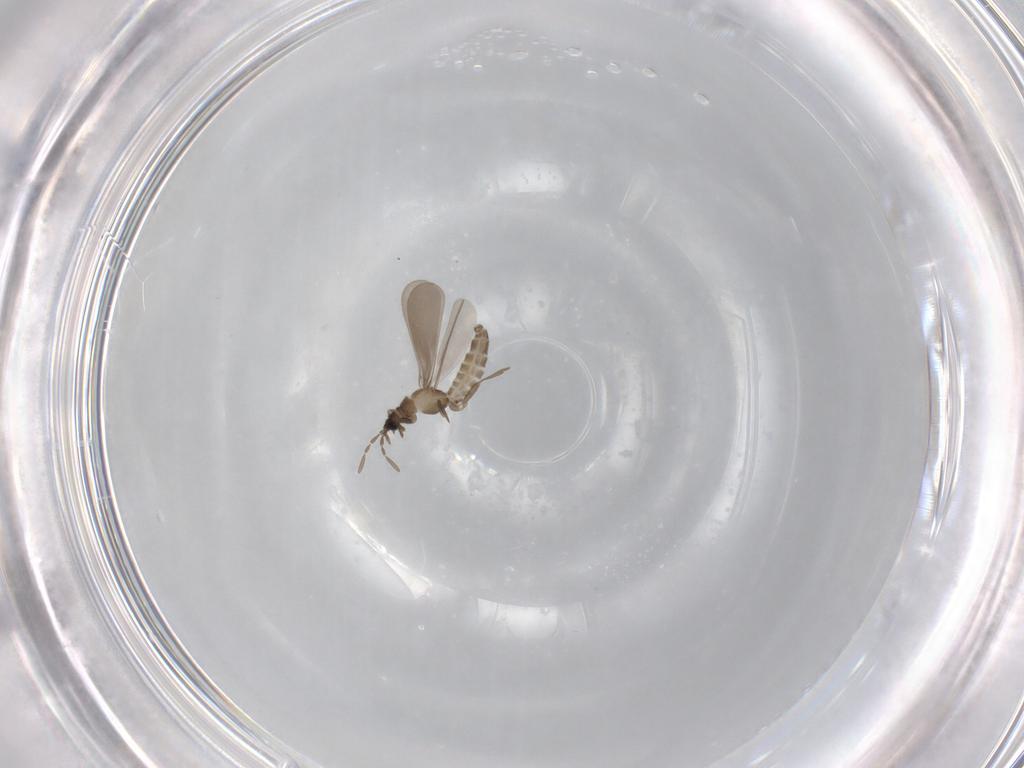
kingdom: Animalia
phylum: Arthropoda
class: Insecta
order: Hemiptera
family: Enicocephalidae
